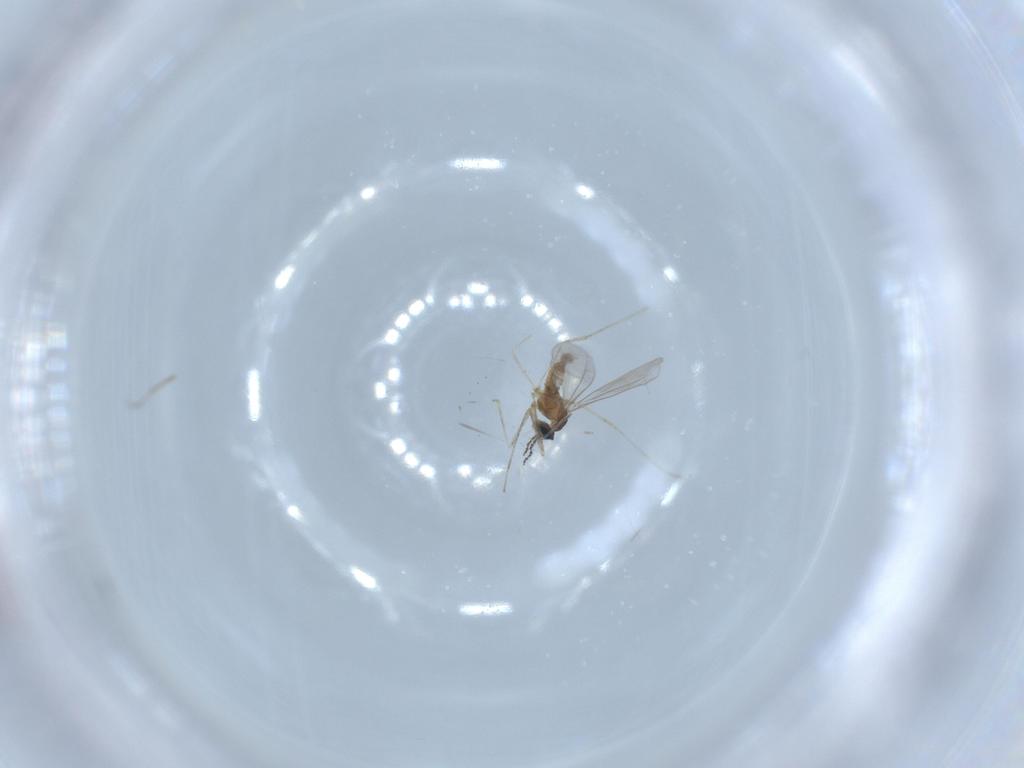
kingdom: Animalia
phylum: Arthropoda
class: Insecta
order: Diptera
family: Cecidomyiidae
